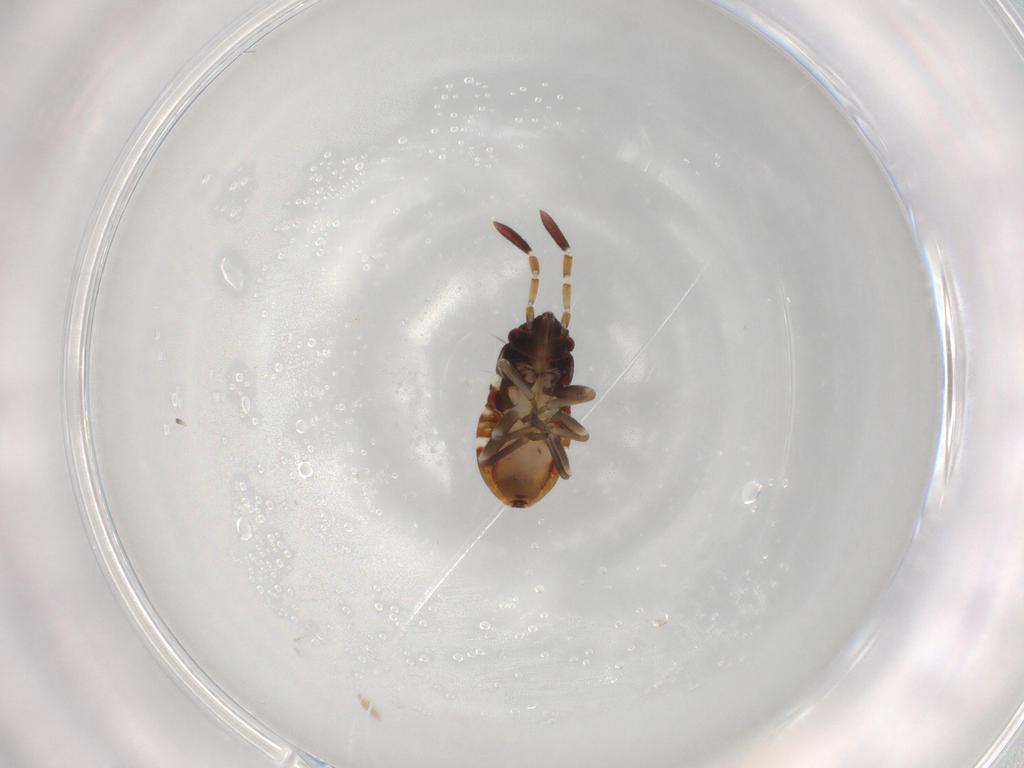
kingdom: Animalia
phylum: Arthropoda
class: Insecta
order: Hemiptera
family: Rhyparochromidae
